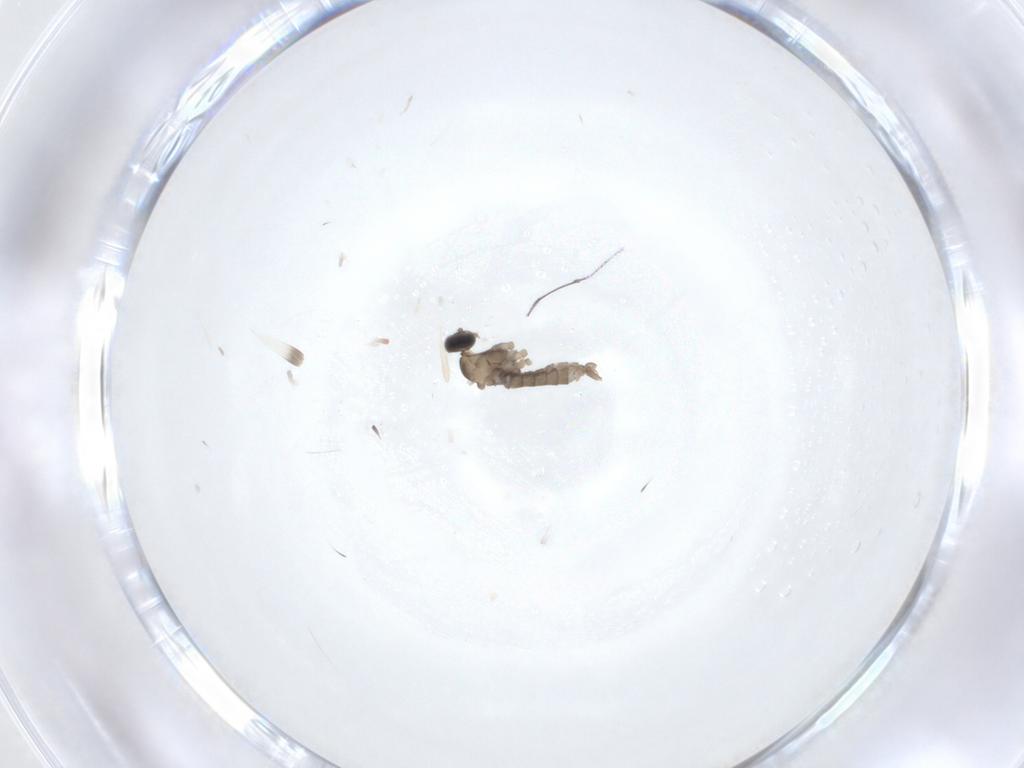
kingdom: Animalia
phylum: Arthropoda
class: Insecta
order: Diptera
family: Cecidomyiidae
